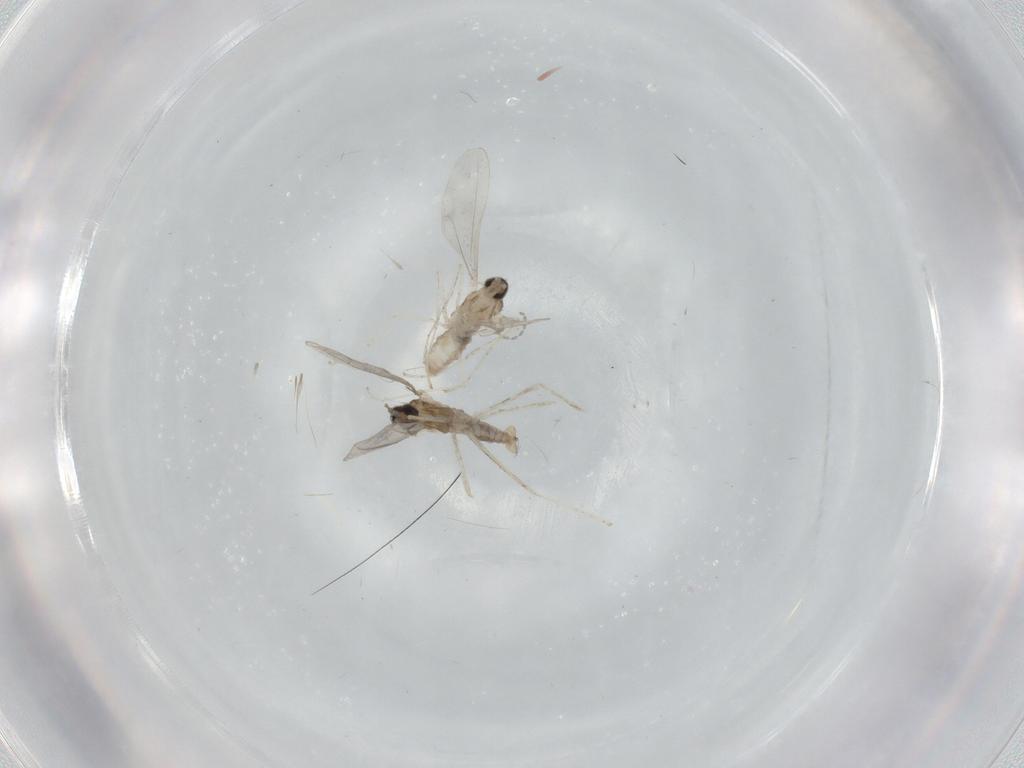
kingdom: Animalia
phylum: Arthropoda
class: Insecta
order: Diptera
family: Cecidomyiidae
